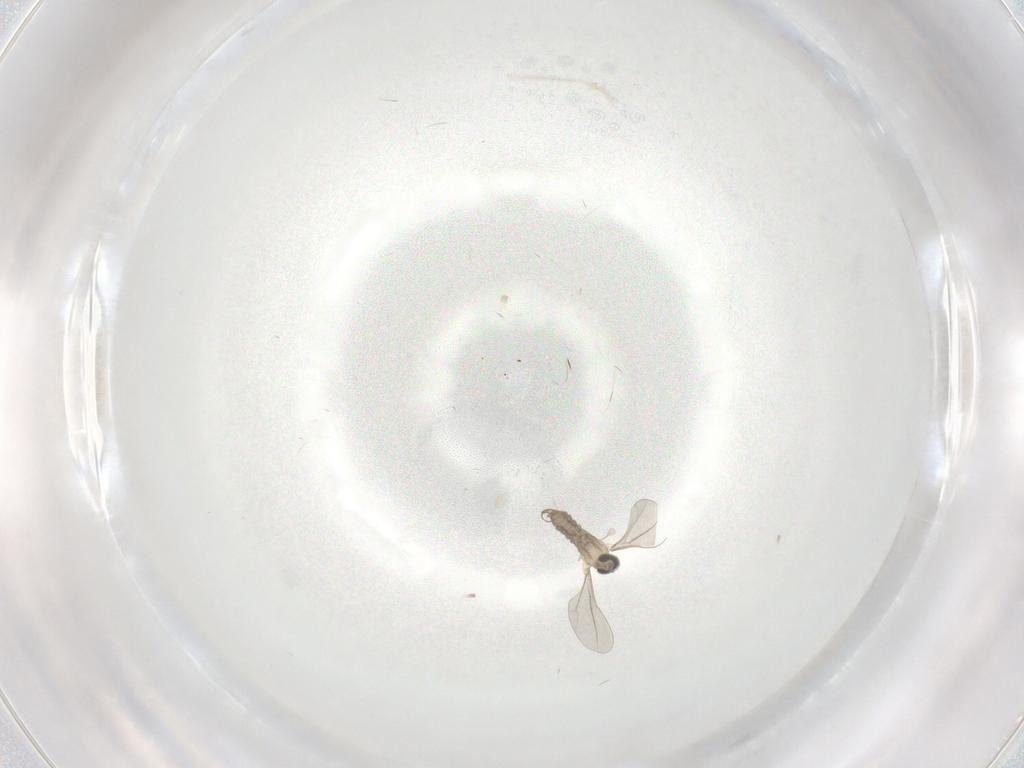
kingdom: Animalia
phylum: Arthropoda
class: Insecta
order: Diptera
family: Cecidomyiidae
